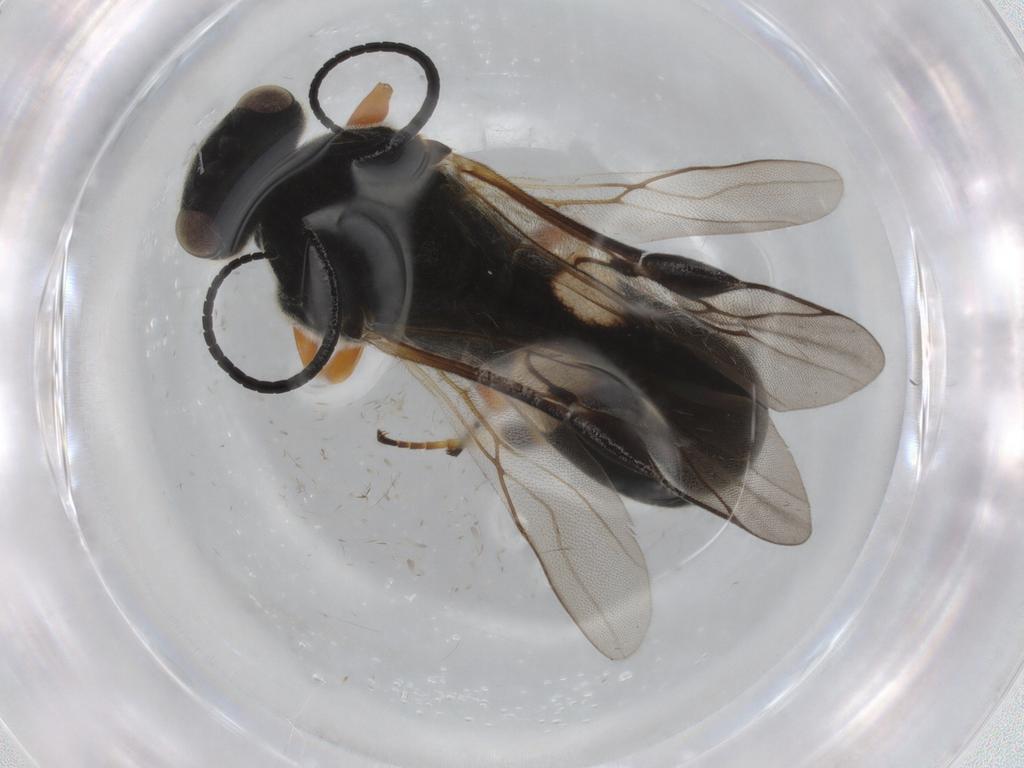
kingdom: Animalia
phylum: Arthropoda
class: Insecta
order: Hymenoptera
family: Braconidae
